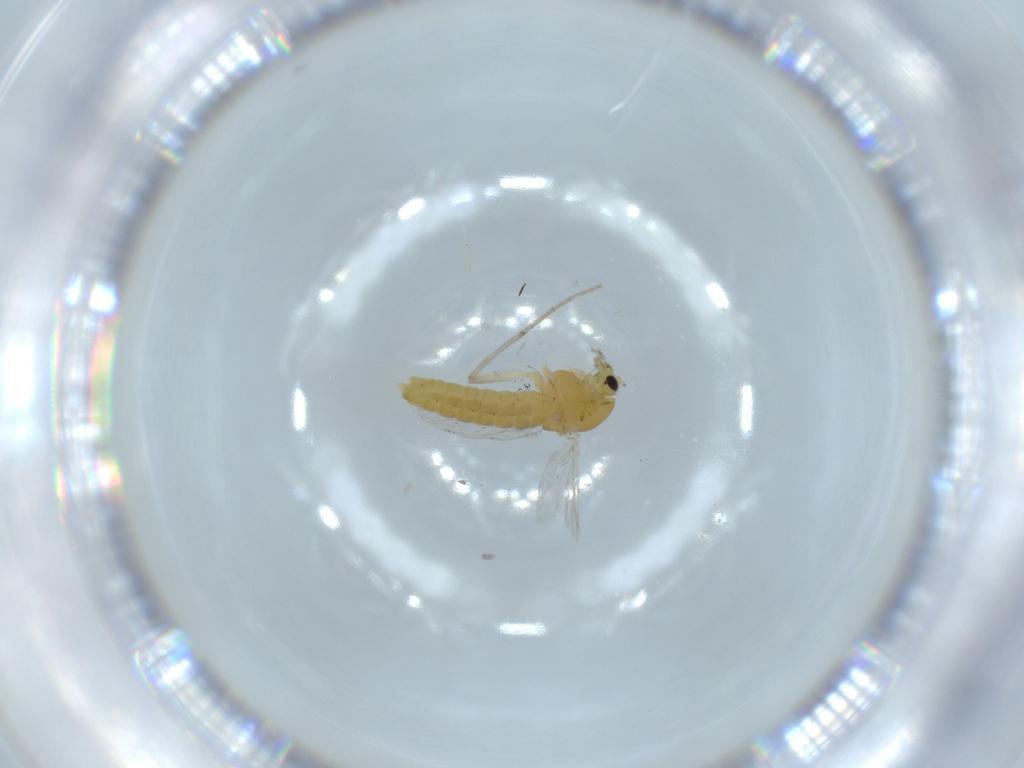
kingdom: Animalia
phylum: Arthropoda
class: Insecta
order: Diptera
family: Chironomidae
